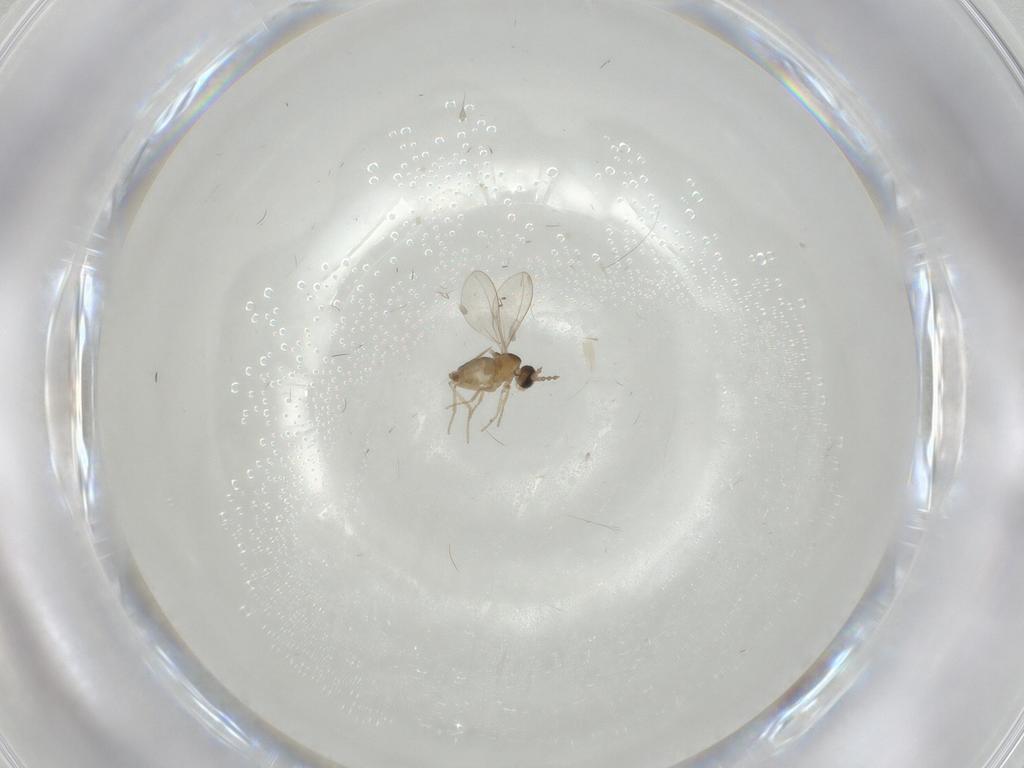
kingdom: Animalia
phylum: Arthropoda
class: Insecta
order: Diptera
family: Cecidomyiidae
